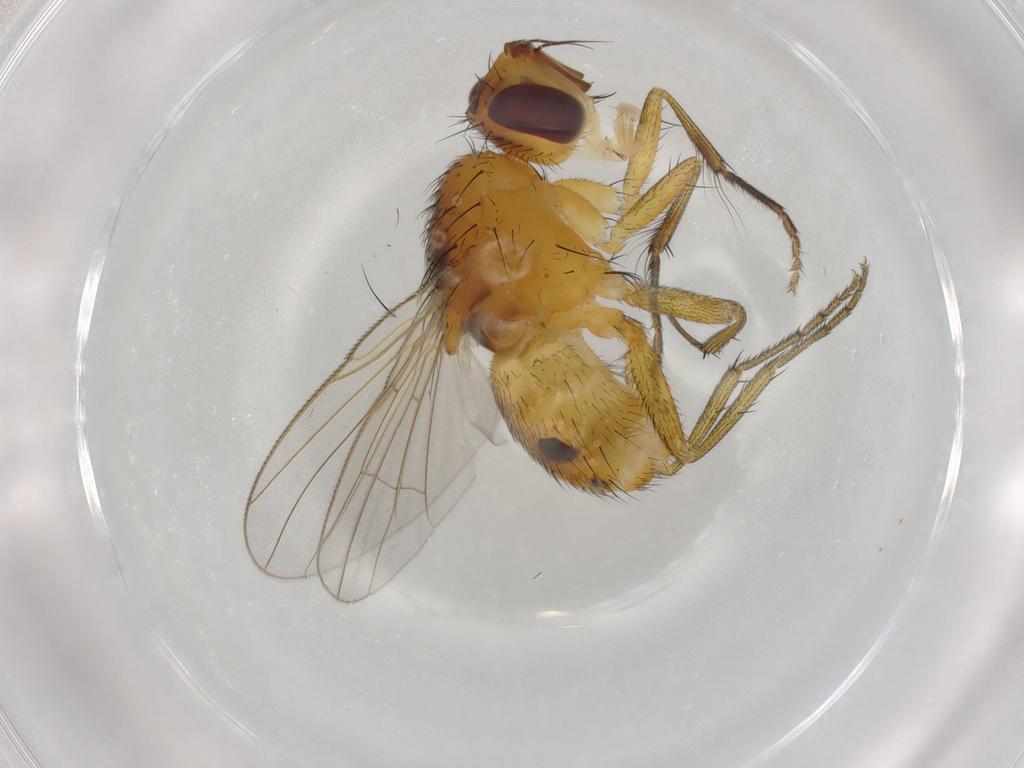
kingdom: Animalia
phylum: Arthropoda
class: Insecta
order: Diptera
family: Muscidae
